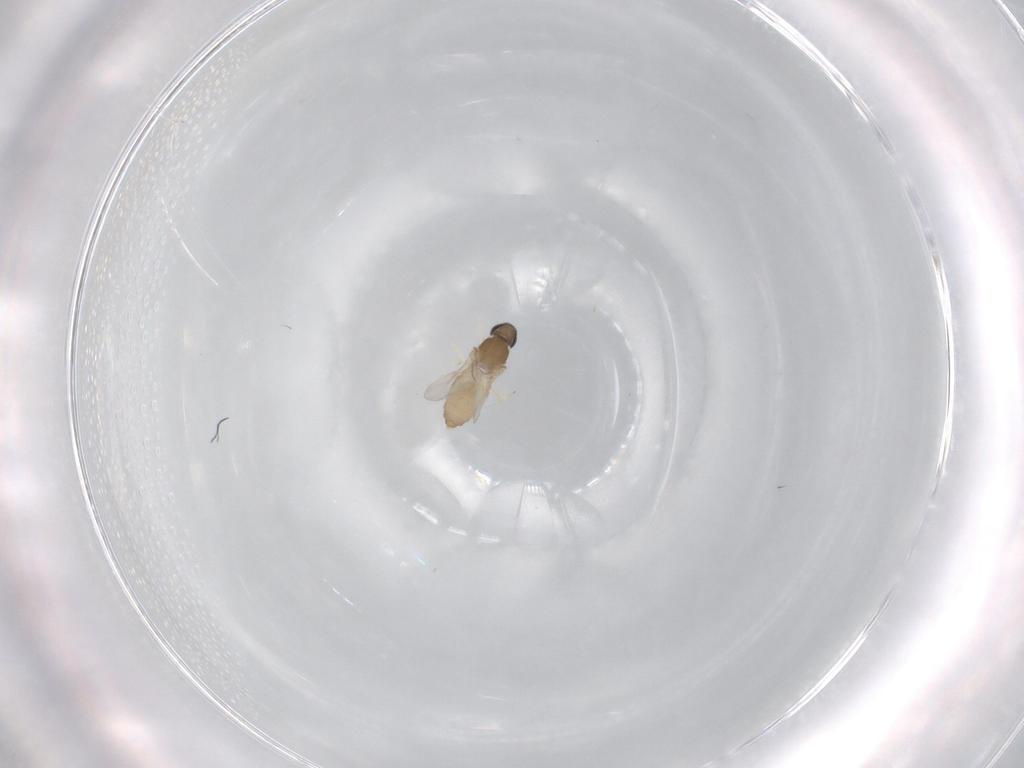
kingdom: Animalia
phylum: Arthropoda
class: Insecta
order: Diptera
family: Cecidomyiidae
